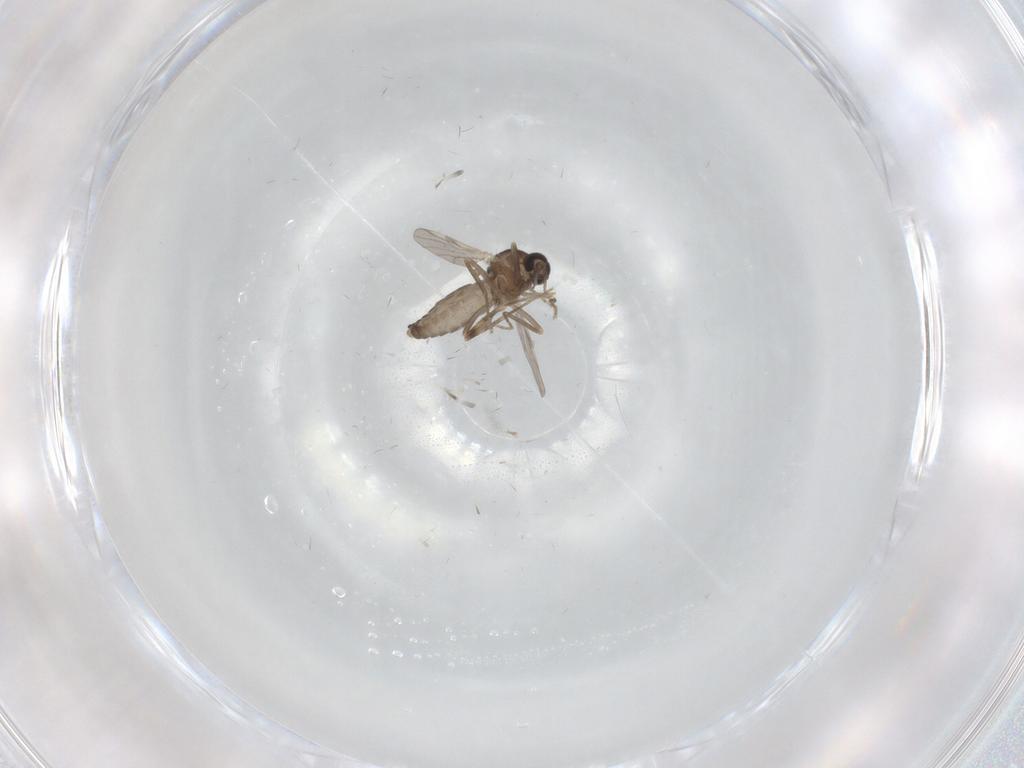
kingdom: Animalia
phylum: Arthropoda
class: Insecta
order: Diptera
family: Ceratopogonidae
